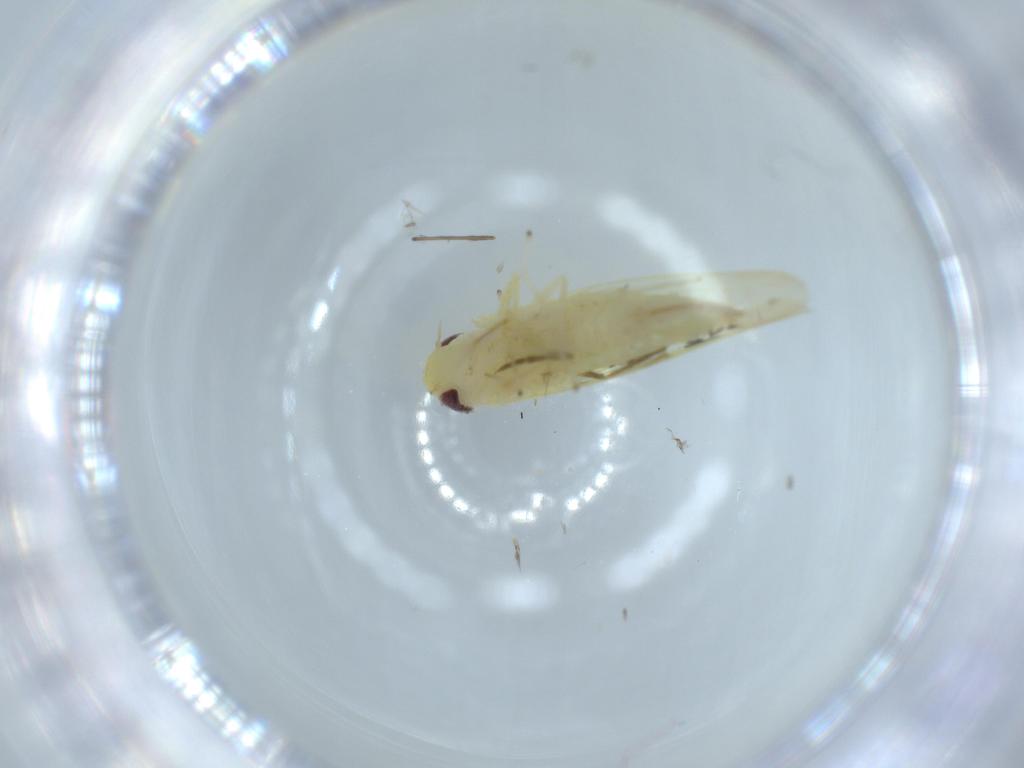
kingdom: Animalia
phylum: Arthropoda
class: Insecta
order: Hemiptera
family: Cicadellidae
